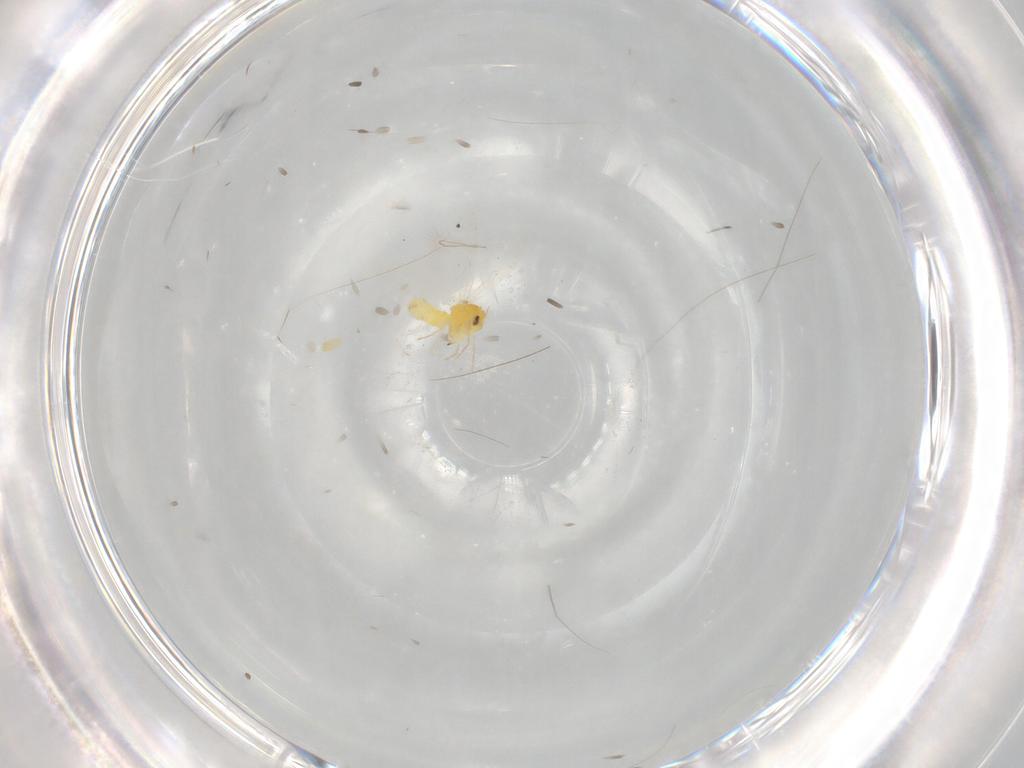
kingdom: Animalia
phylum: Arthropoda
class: Insecta
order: Hemiptera
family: Aleyrodidae
